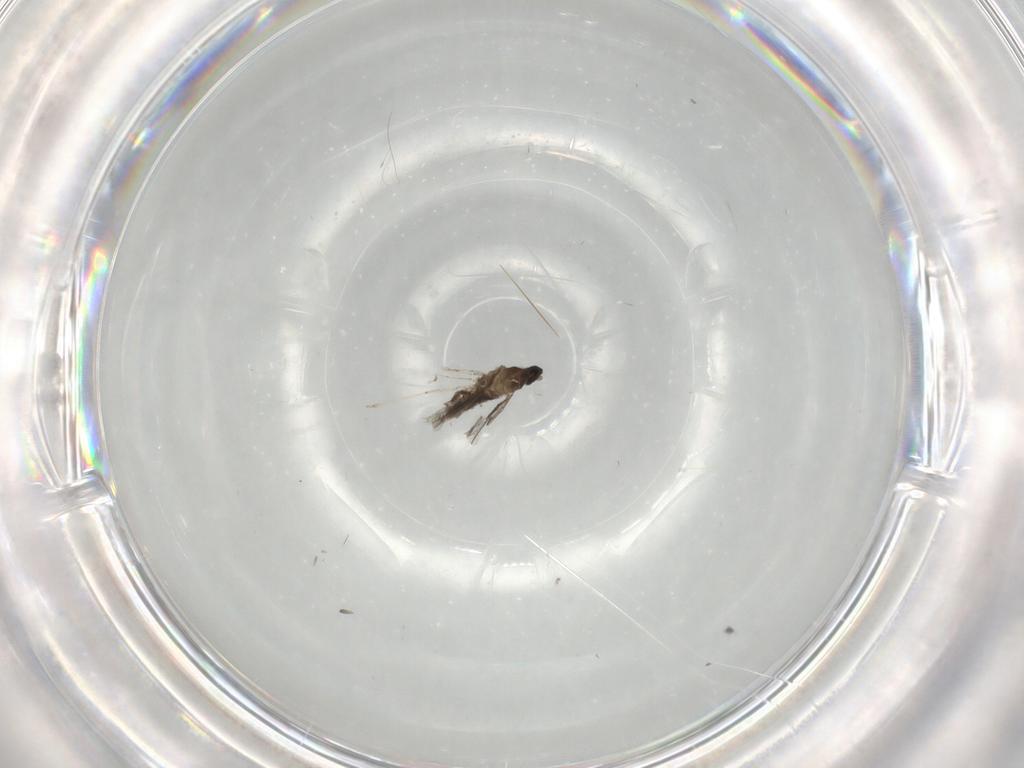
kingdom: Animalia
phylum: Arthropoda
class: Insecta
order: Diptera
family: Cecidomyiidae
